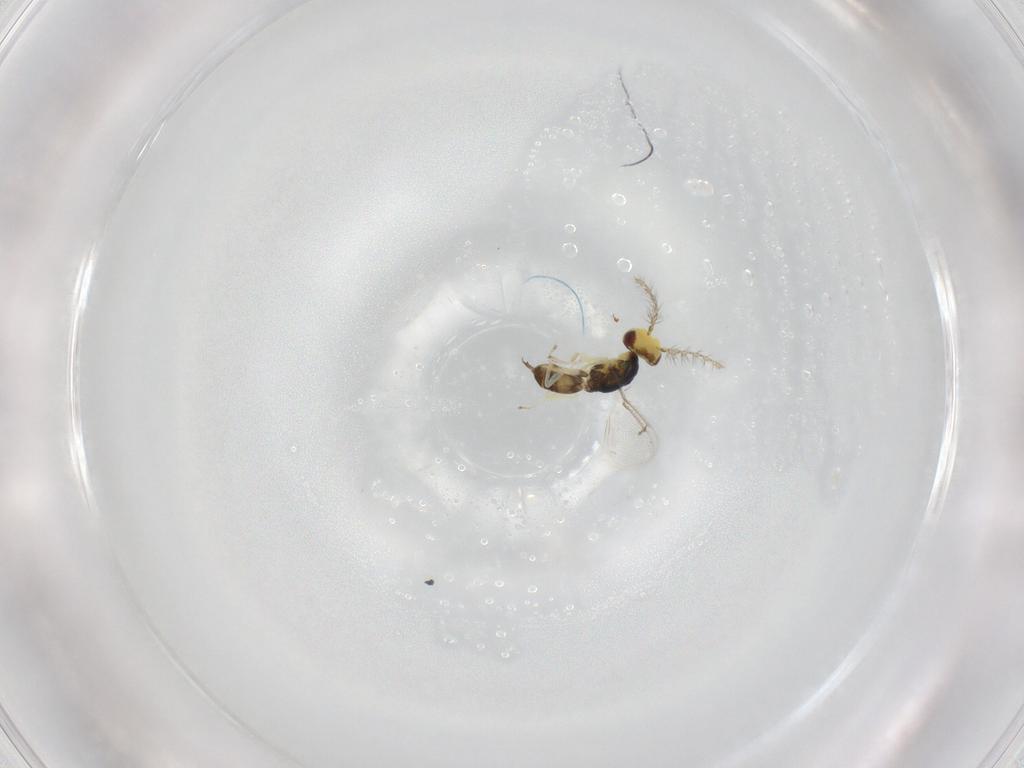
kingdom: Animalia
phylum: Arthropoda
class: Insecta
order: Hymenoptera
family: Eulophidae
